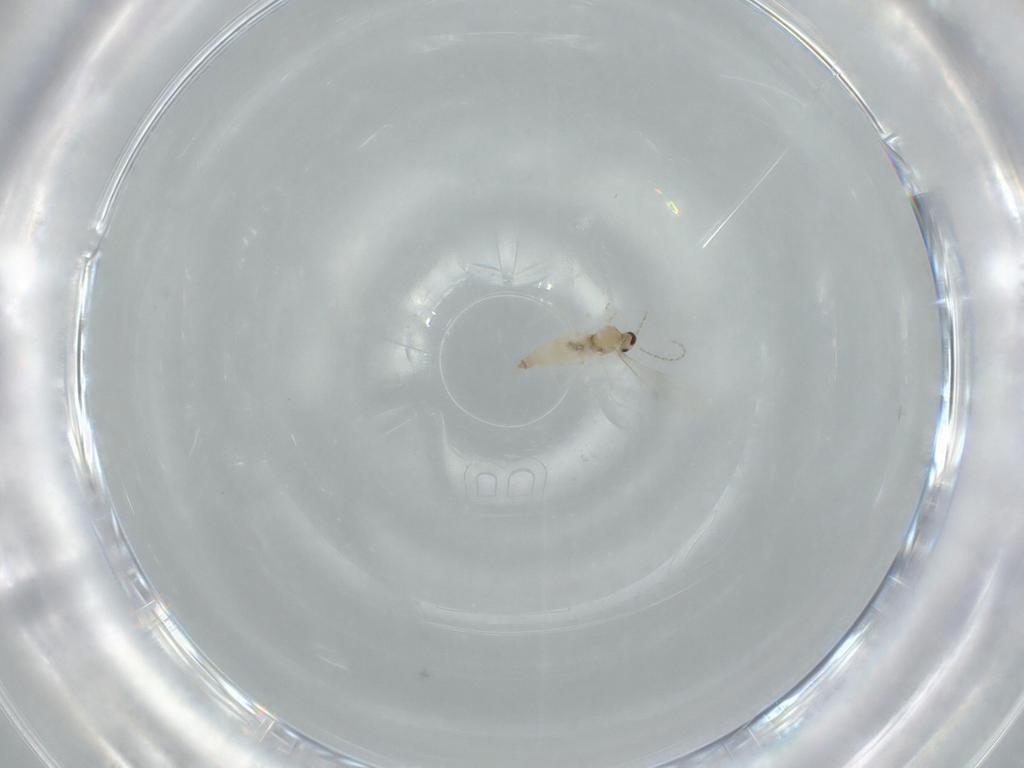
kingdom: Animalia
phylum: Arthropoda
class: Insecta
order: Diptera
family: Cecidomyiidae
